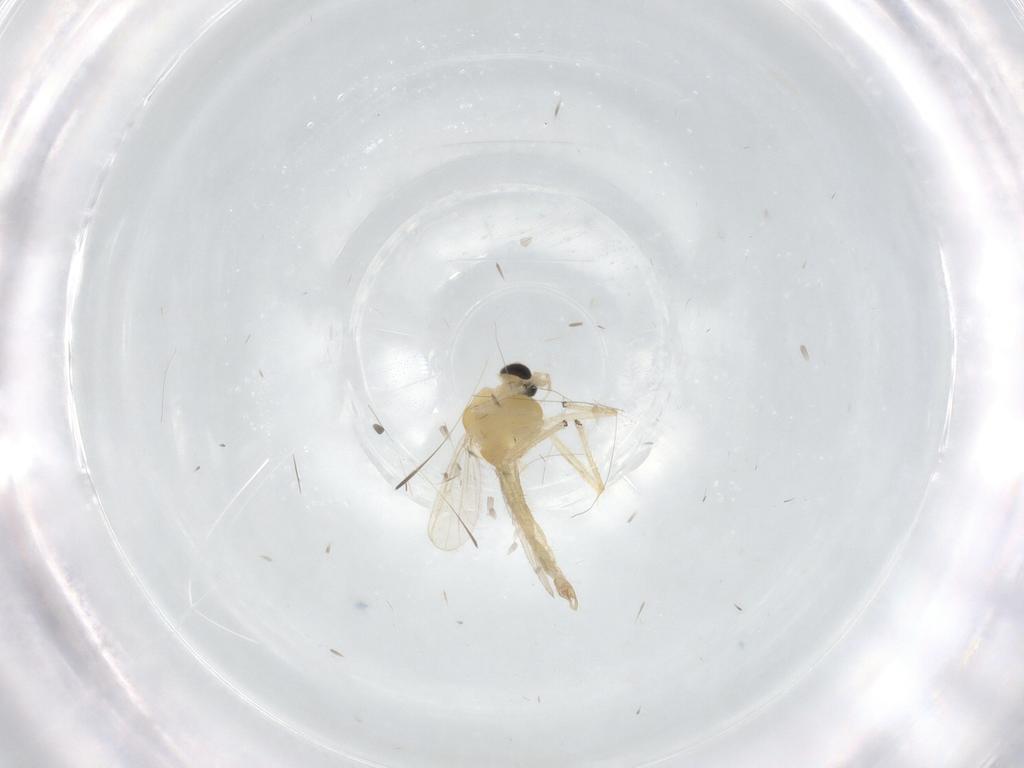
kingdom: Animalia
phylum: Arthropoda
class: Insecta
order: Diptera
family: Chironomidae
